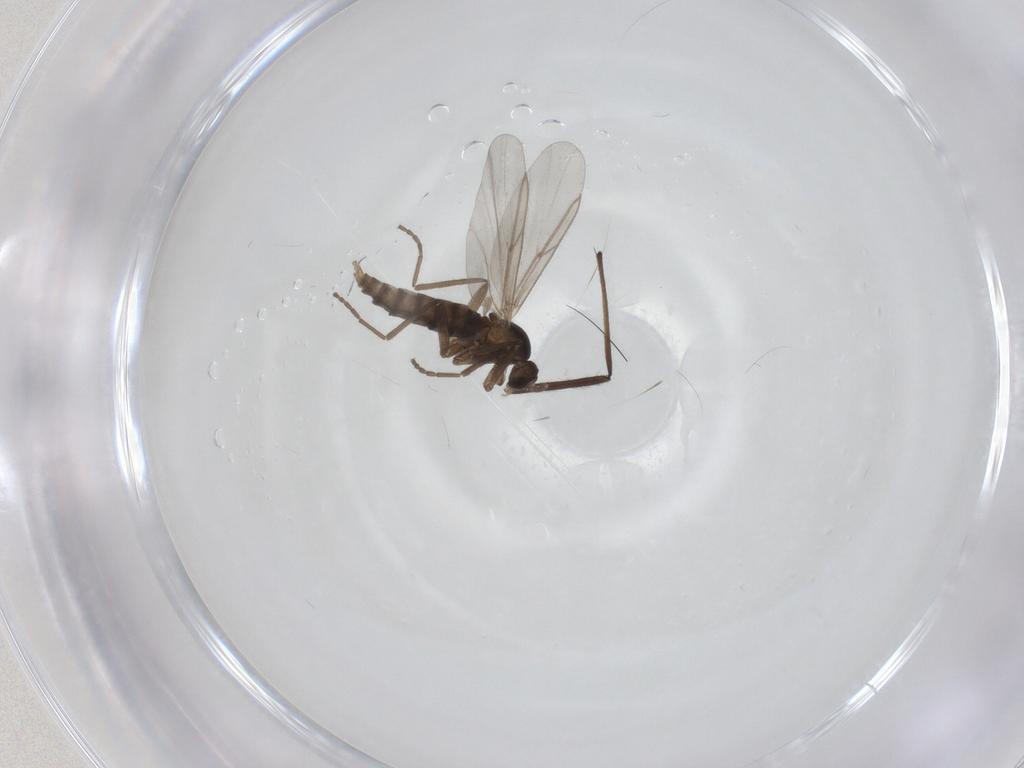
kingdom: Animalia
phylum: Arthropoda
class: Insecta
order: Diptera
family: Cecidomyiidae
